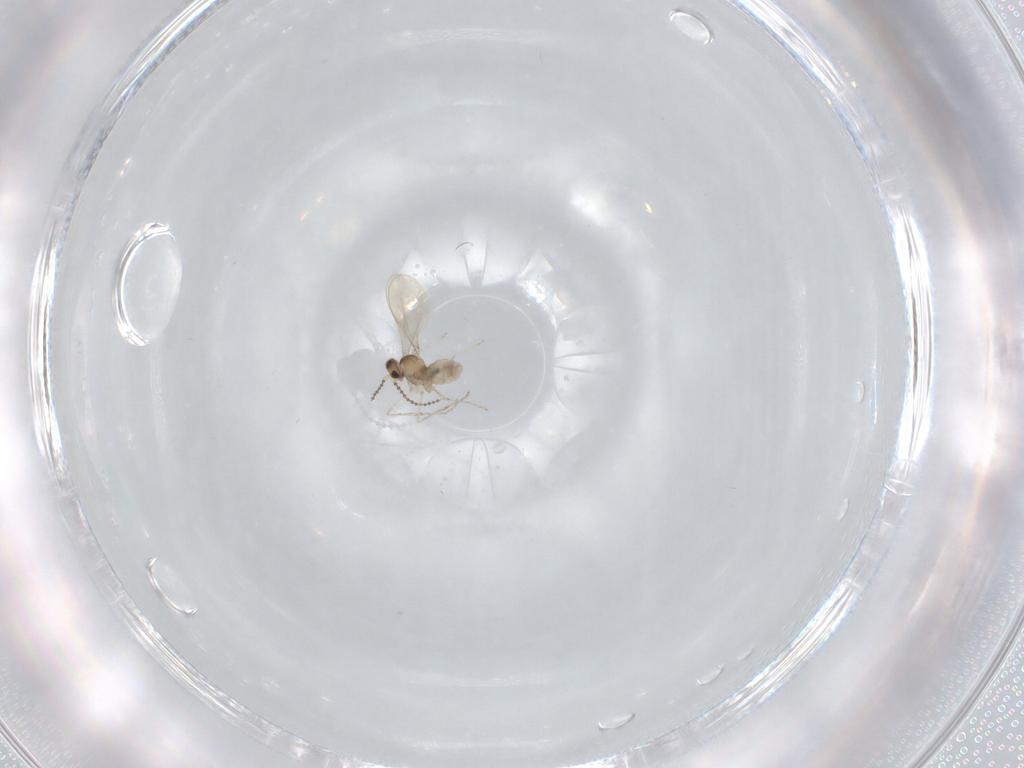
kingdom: Animalia
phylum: Arthropoda
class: Insecta
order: Diptera
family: Cecidomyiidae
